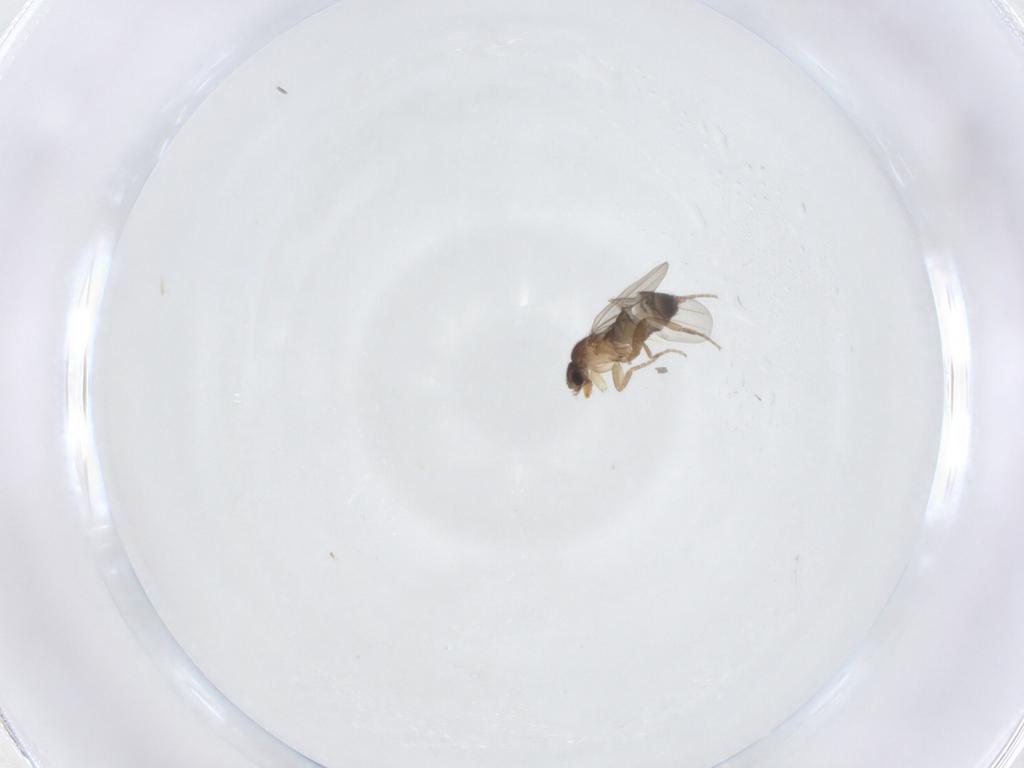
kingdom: Animalia
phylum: Arthropoda
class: Insecta
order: Diptera
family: Phoridae
